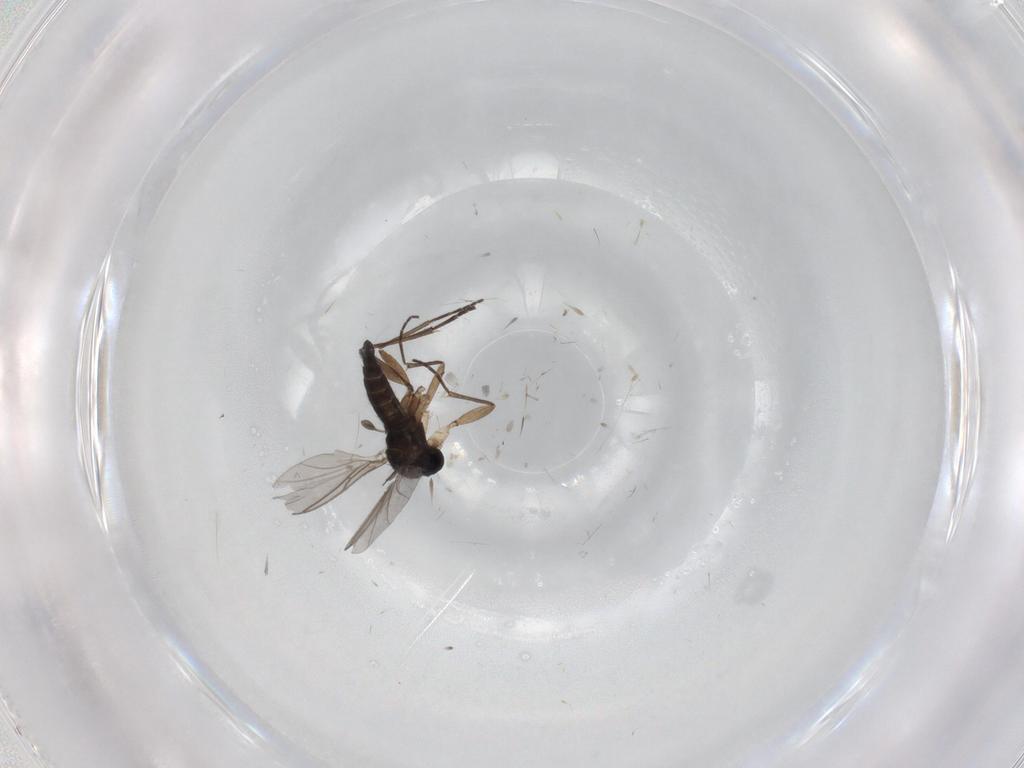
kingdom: Animalia
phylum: Arthropoda
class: Insecta
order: Diptera
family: Sciaridae
